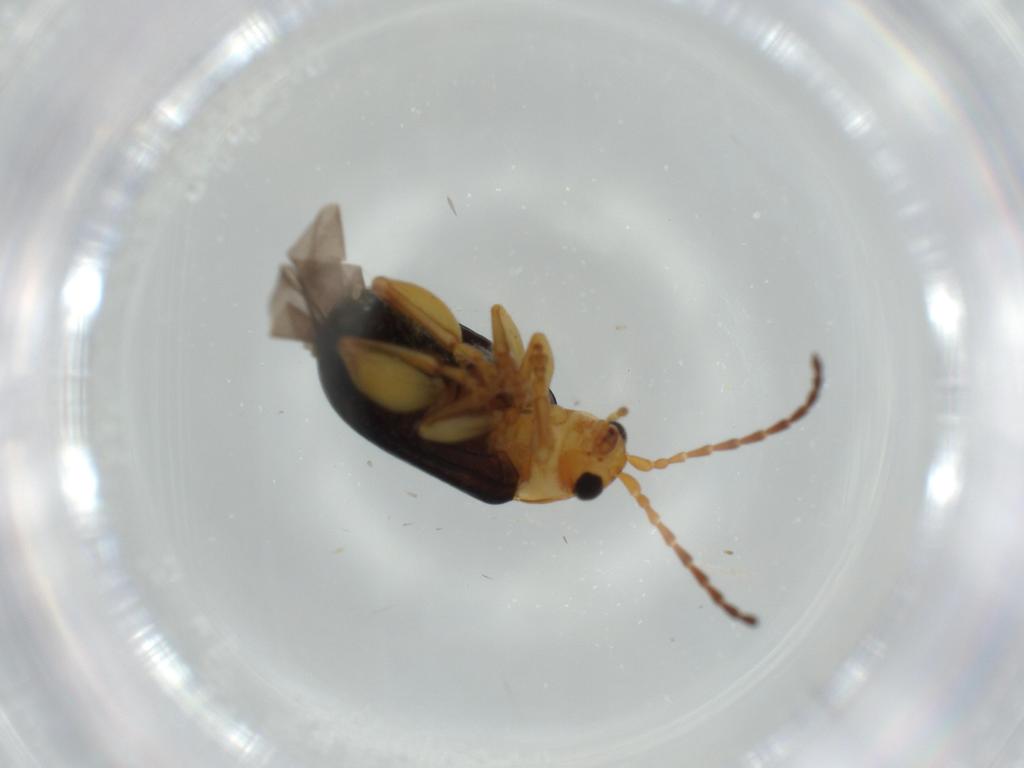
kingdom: Animalia
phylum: Arthropoda
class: Insecta
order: Coleoptera
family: Chrysomelidae
